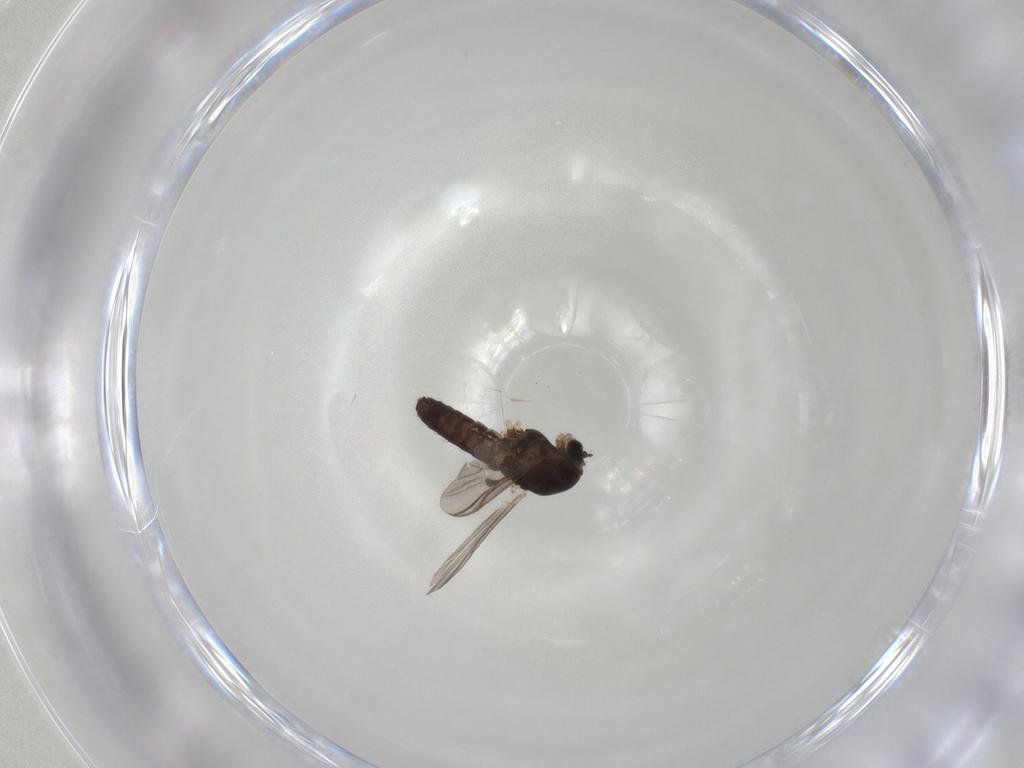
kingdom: Animalia
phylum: Arthropoda
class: Insecta
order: Diptera
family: Chironomidae
